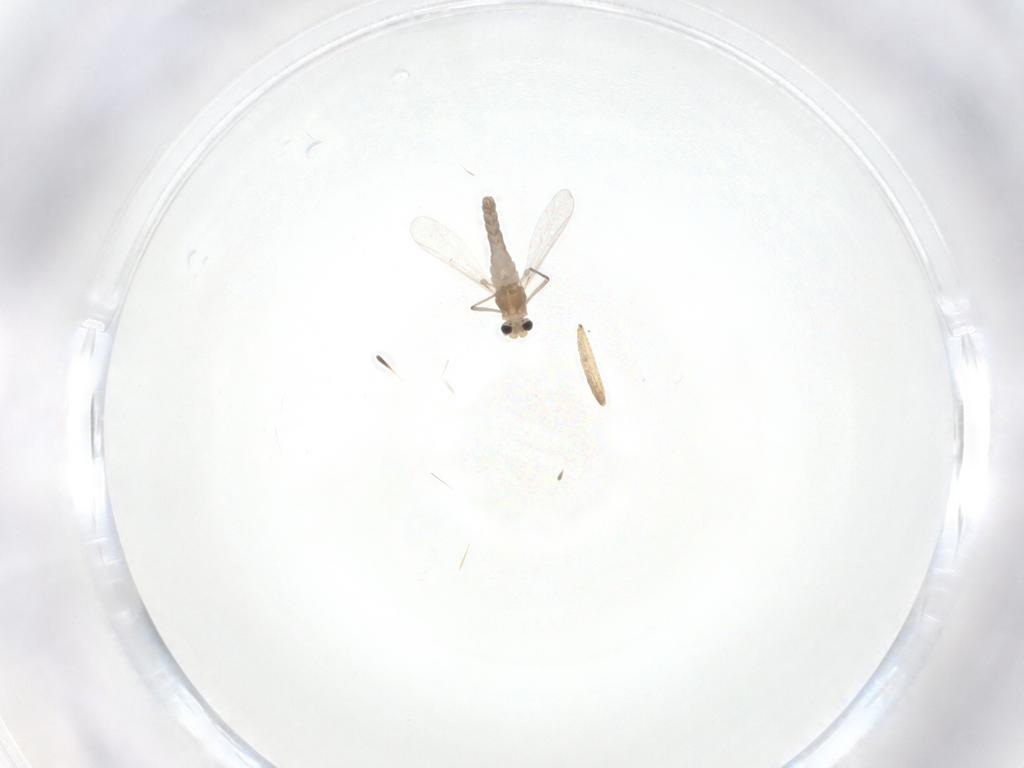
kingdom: Animalia
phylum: Arthropoda
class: Insecta
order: Diptera
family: Chironomidae
